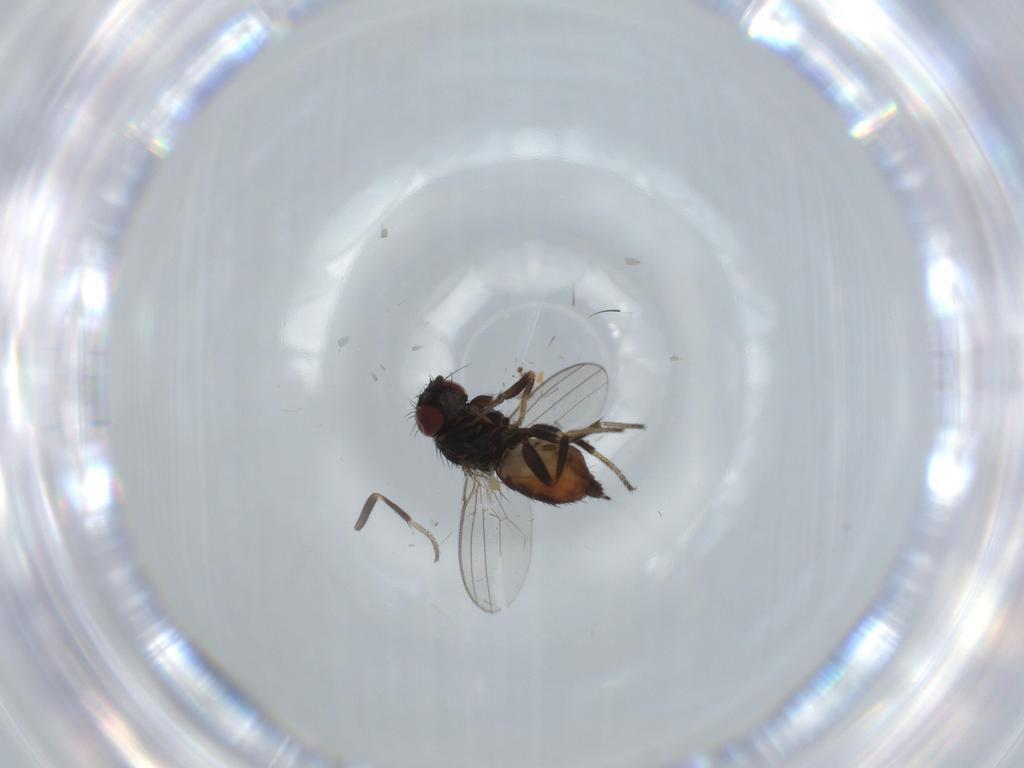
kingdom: Animalia
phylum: Arthropoda
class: Insecta
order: Diptera
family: Milichiidae
